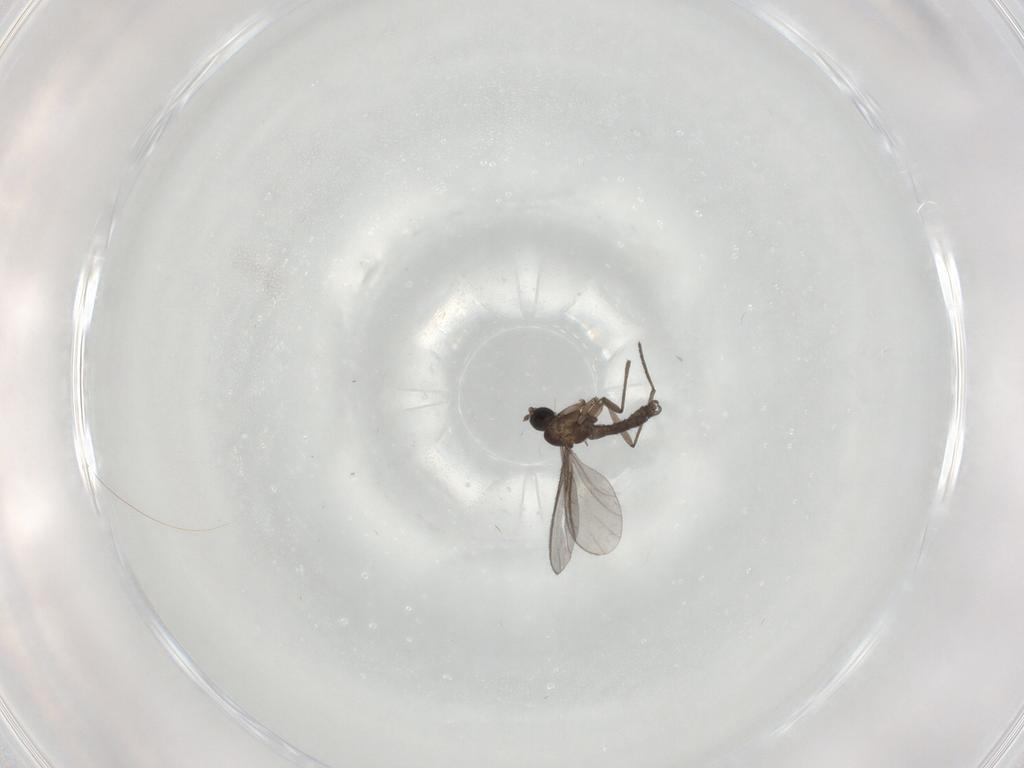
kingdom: Animalia
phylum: Arthropoda
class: Insecta
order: Diptera
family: Sciaridae
